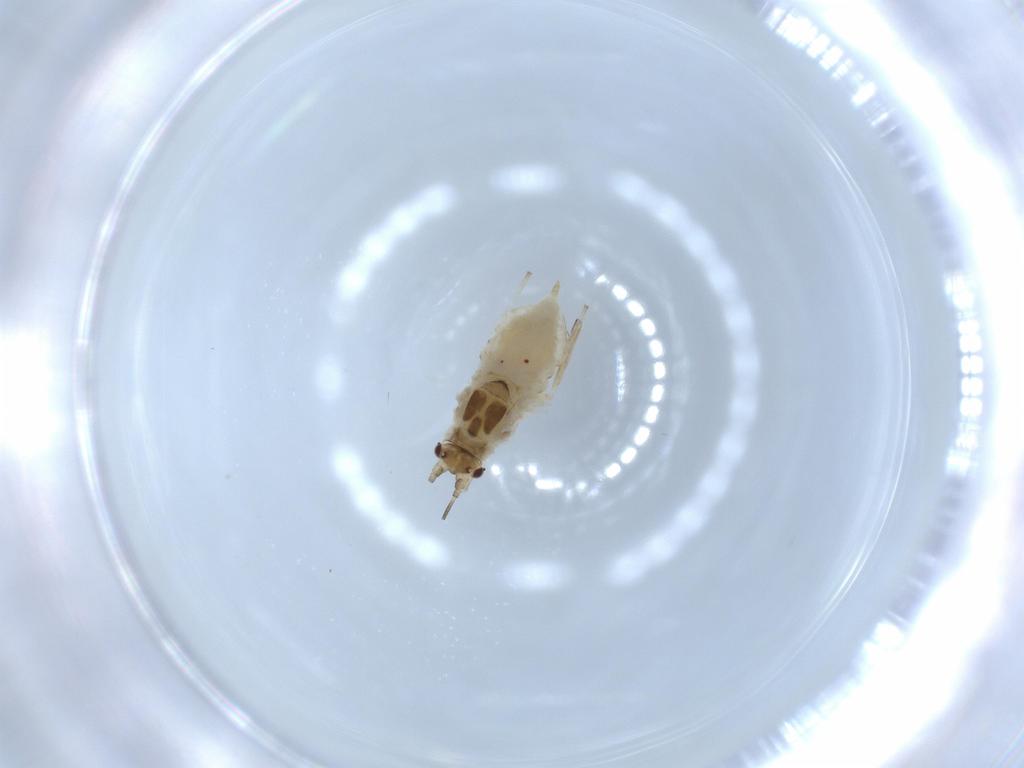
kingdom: Animalia
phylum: Arthropoda
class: Insecta
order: Hemiptera
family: Aphididae
